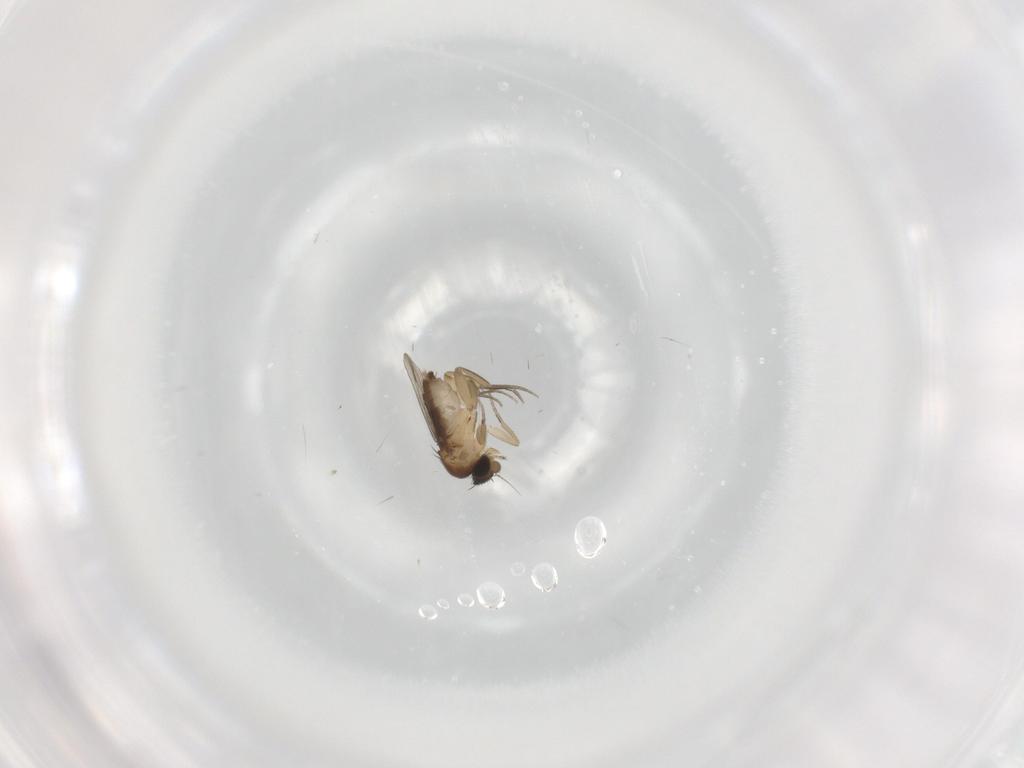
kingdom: Animalia
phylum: Arthropoda
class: Insecta
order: Diptera
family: Phoridae
